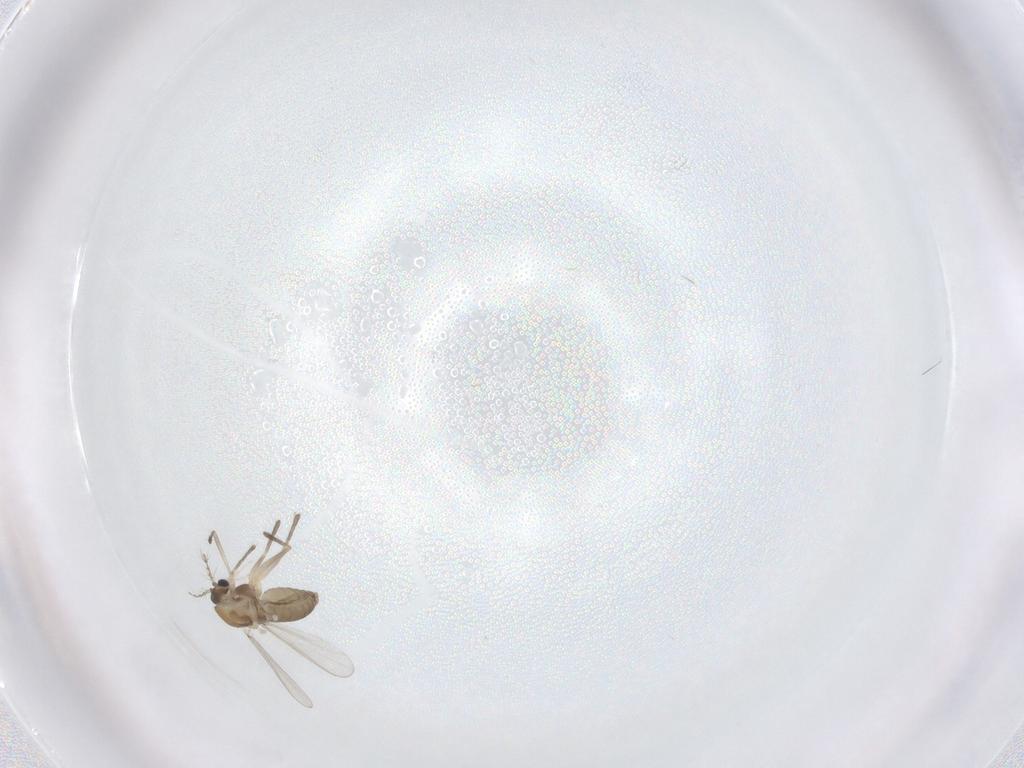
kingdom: Animalia
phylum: Arthropoda
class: Insecta
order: Diptera
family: Chironomidae
